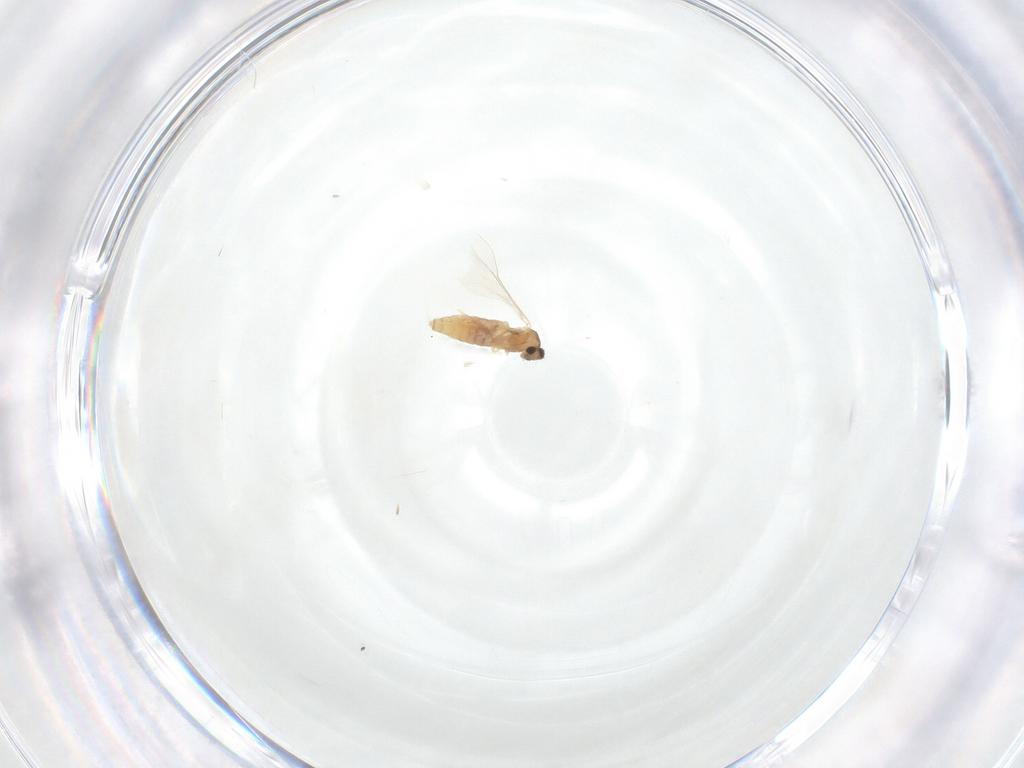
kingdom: Animalia
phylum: Arthropoda
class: Insecta
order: Diptera
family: Cecidomyiidae
